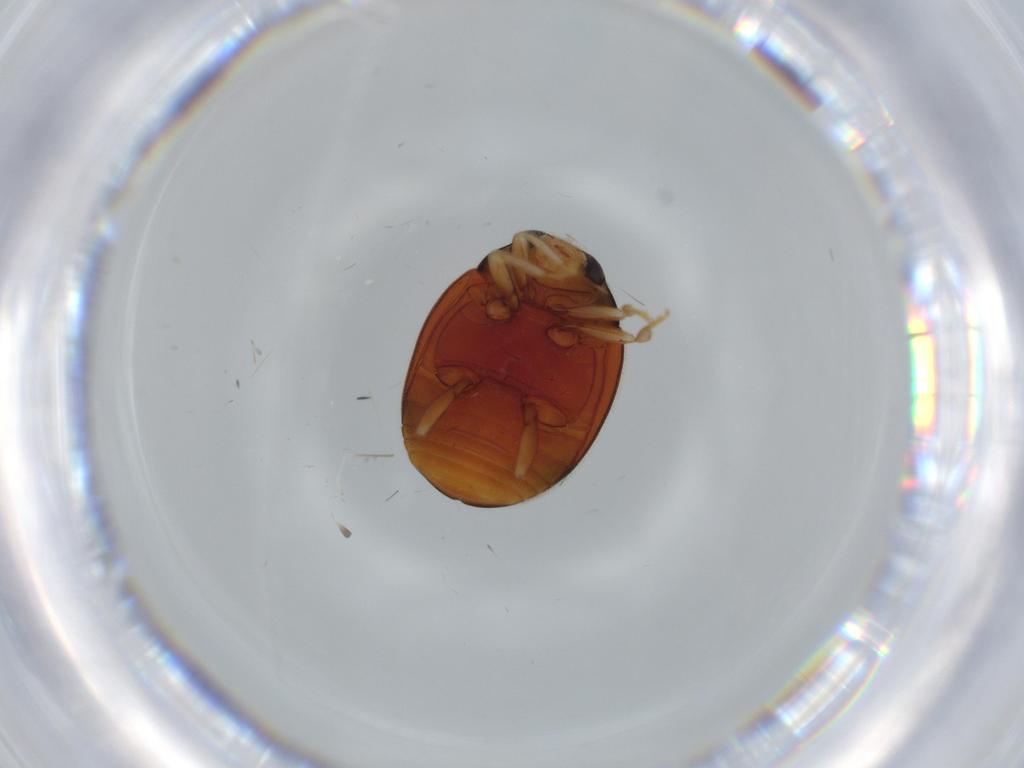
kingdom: Animalia
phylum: Arthropoda
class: Insecta
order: Coleoptera
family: Coccinellidae
